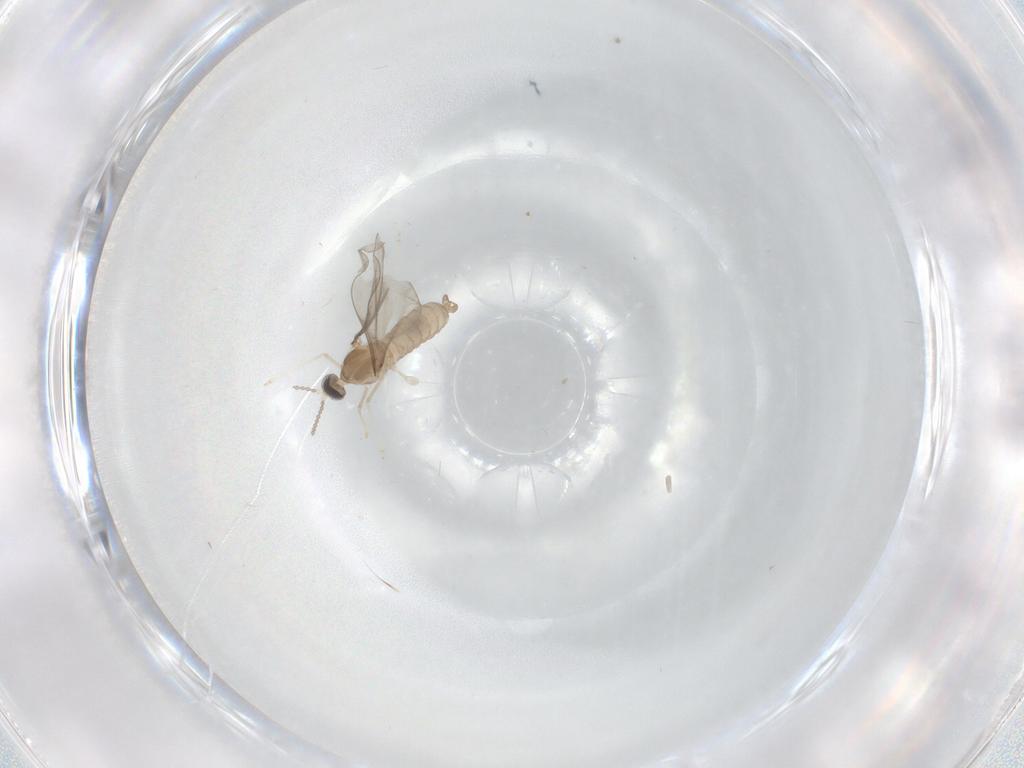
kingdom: Animalia
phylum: Arthropoda
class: Insecta
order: Diptera
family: Cecidomyiidae
